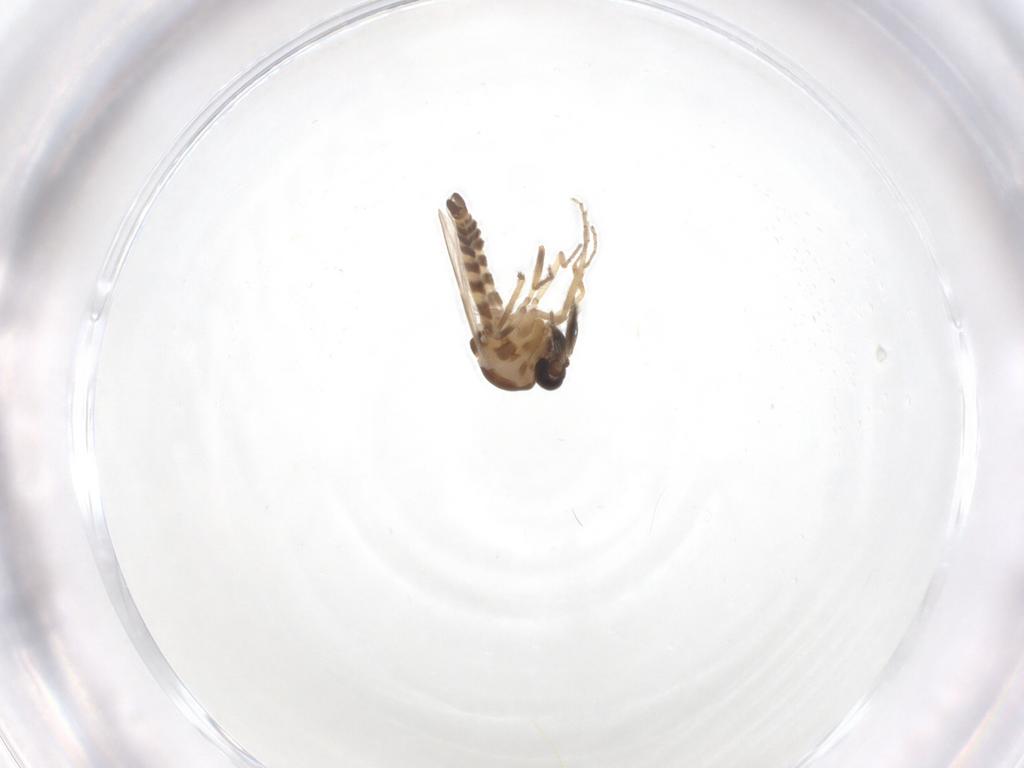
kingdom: Animalia
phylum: Arthropoda
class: Insecta
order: Diptera
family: Ceratopogonidae
